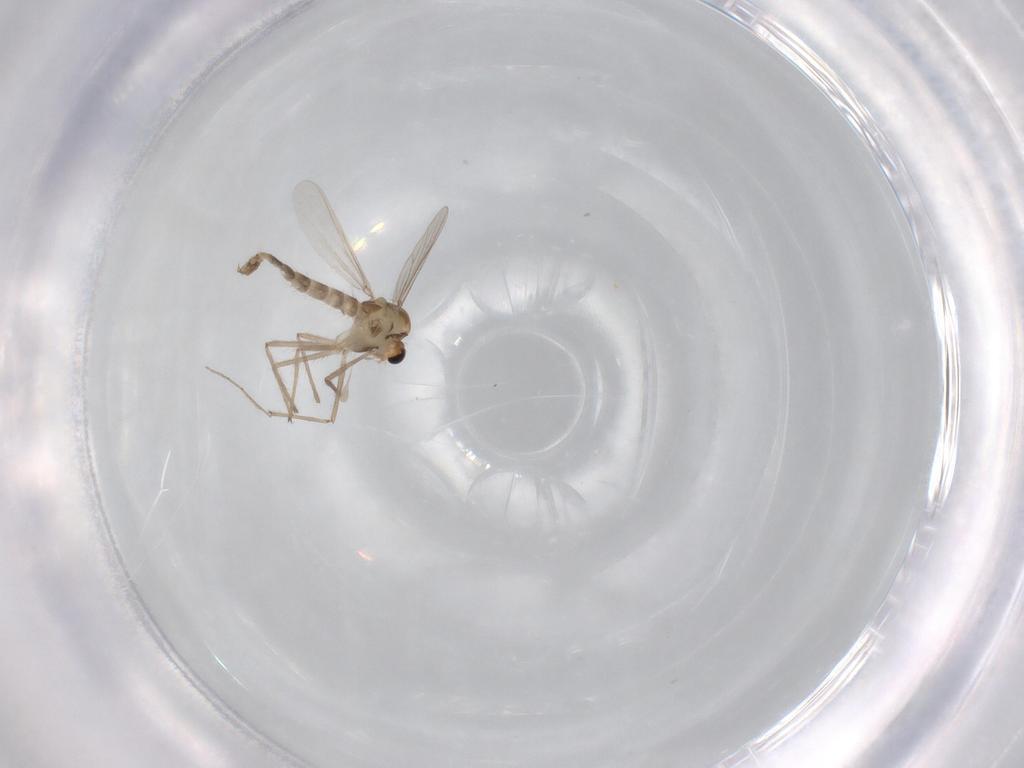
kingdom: Animalia
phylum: Arthropoda
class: Insecta
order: Diptera
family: Chironomidae
